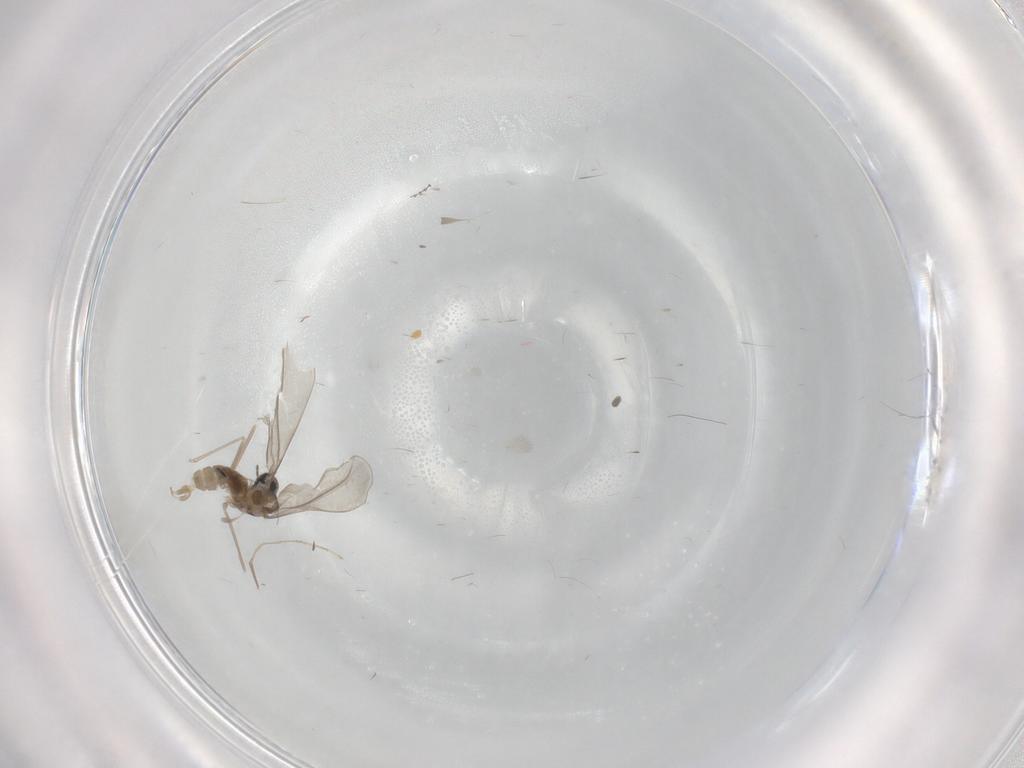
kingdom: Animalia
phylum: Arthropoda
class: Insecta
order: Diptera
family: Cecidomyiidae
